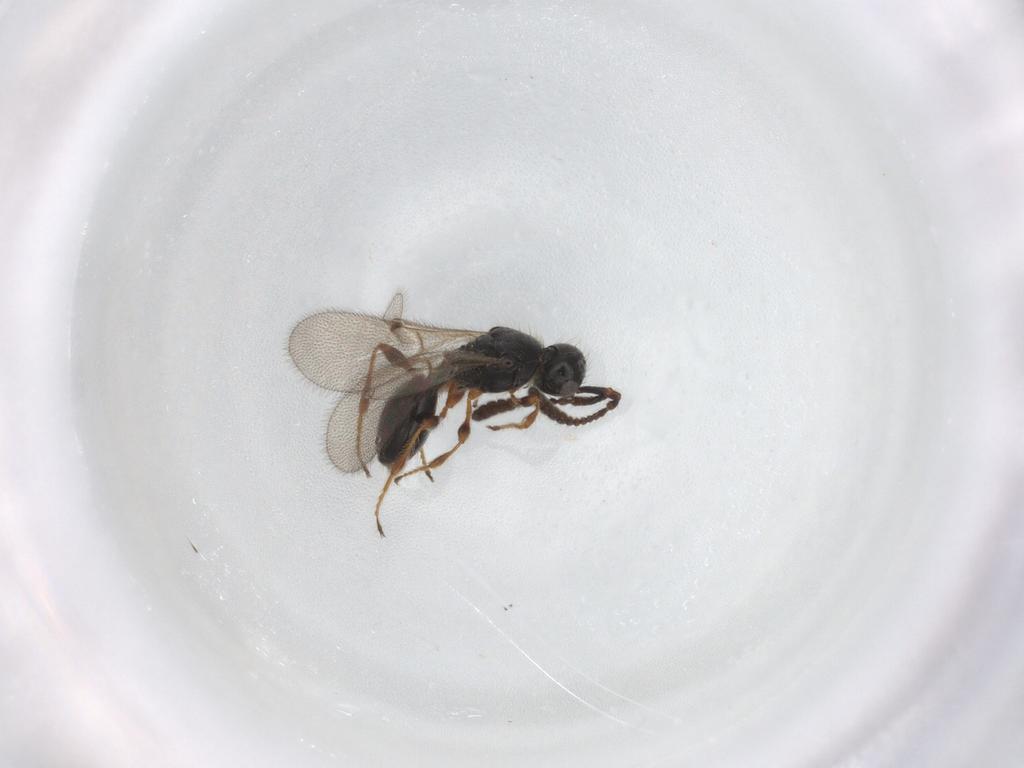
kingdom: Animalia
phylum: Arthropoda
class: Insecta
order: Hymenoptera
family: Diapriidae
